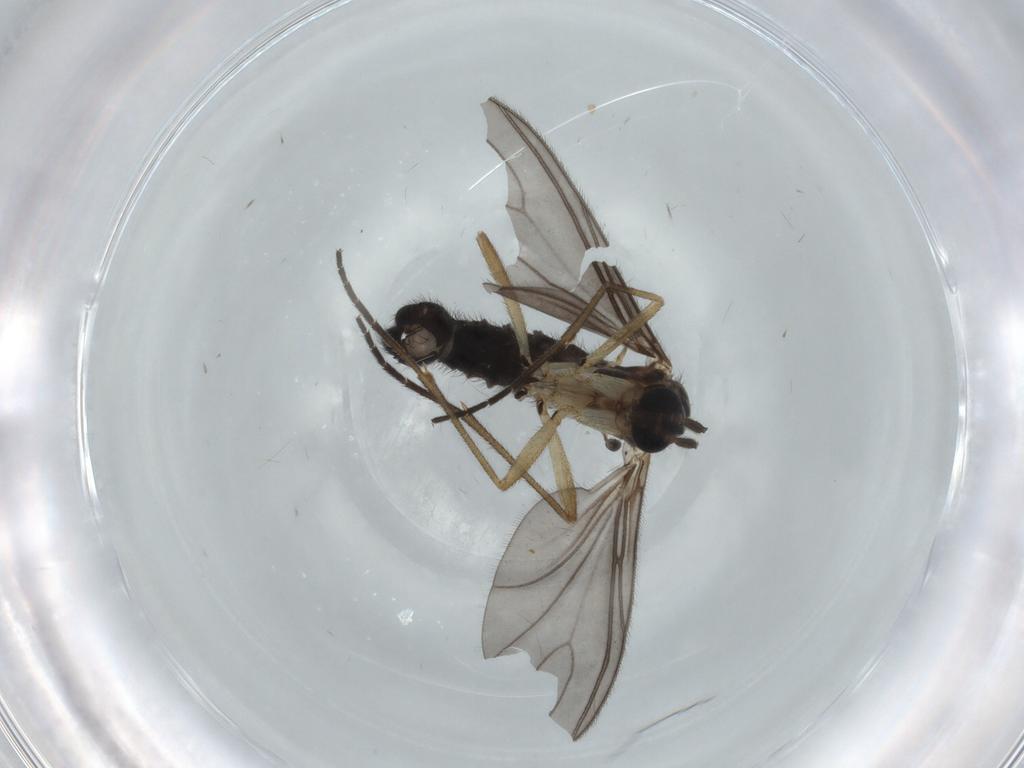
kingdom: Animalia
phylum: Arthropoda
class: Insecta
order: Diptera
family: Sciaridae
